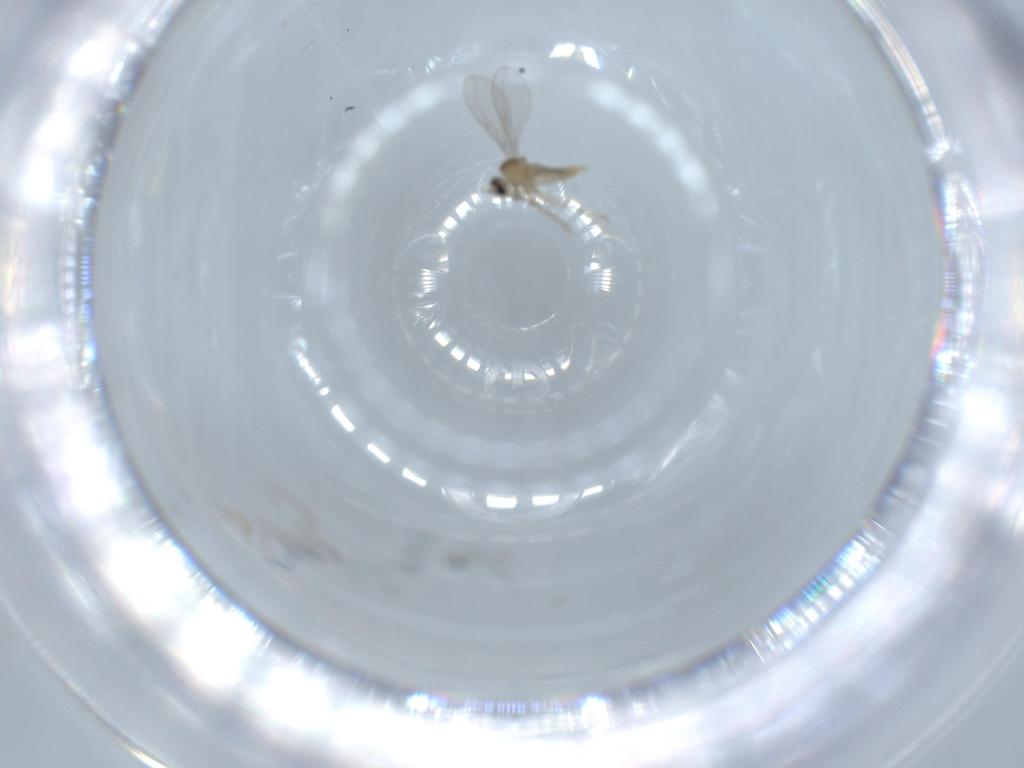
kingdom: Animalia
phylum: Arthropoda
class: Insecta
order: Diptera
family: Cecidomyiidae
